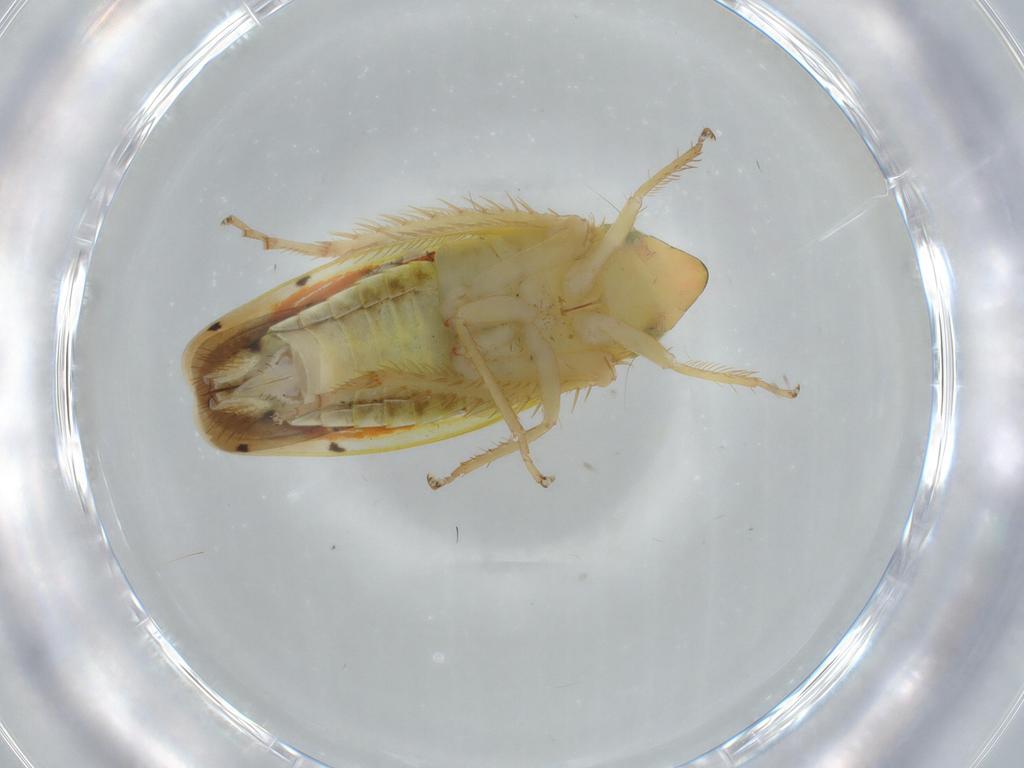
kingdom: Animalia
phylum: Arthropoda
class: Insecta
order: Hemiptera
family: Cicadellidae
